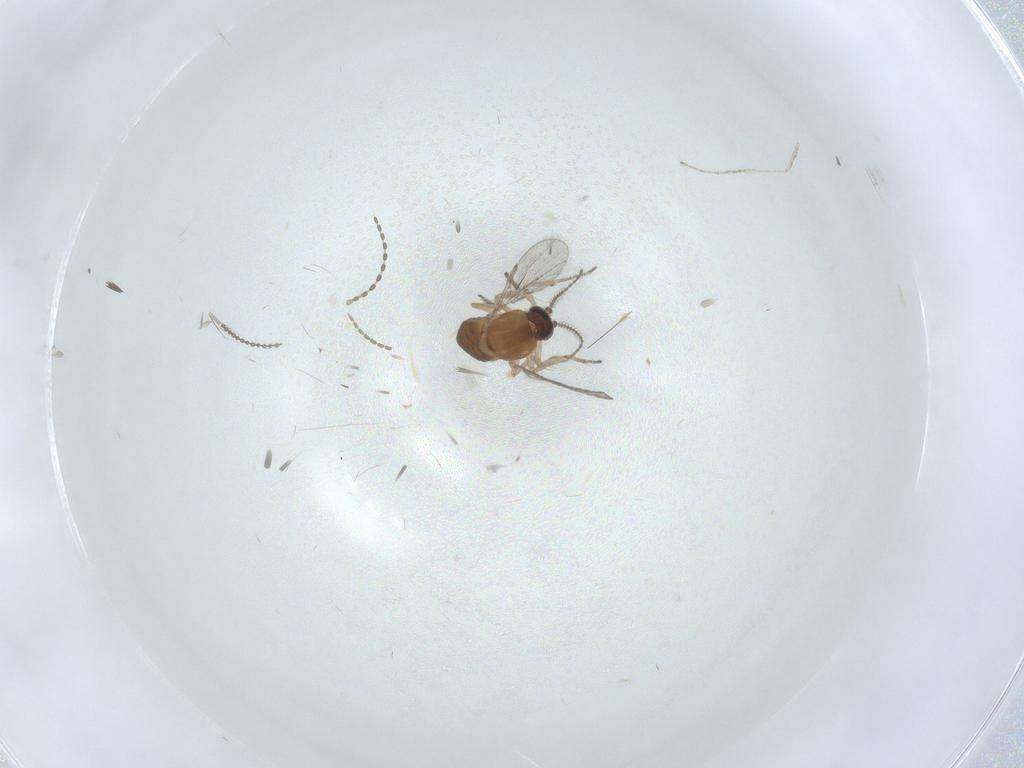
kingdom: Animalia
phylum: Arthropoda
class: Insecta
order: Diptera
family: Ceratopogonidae
